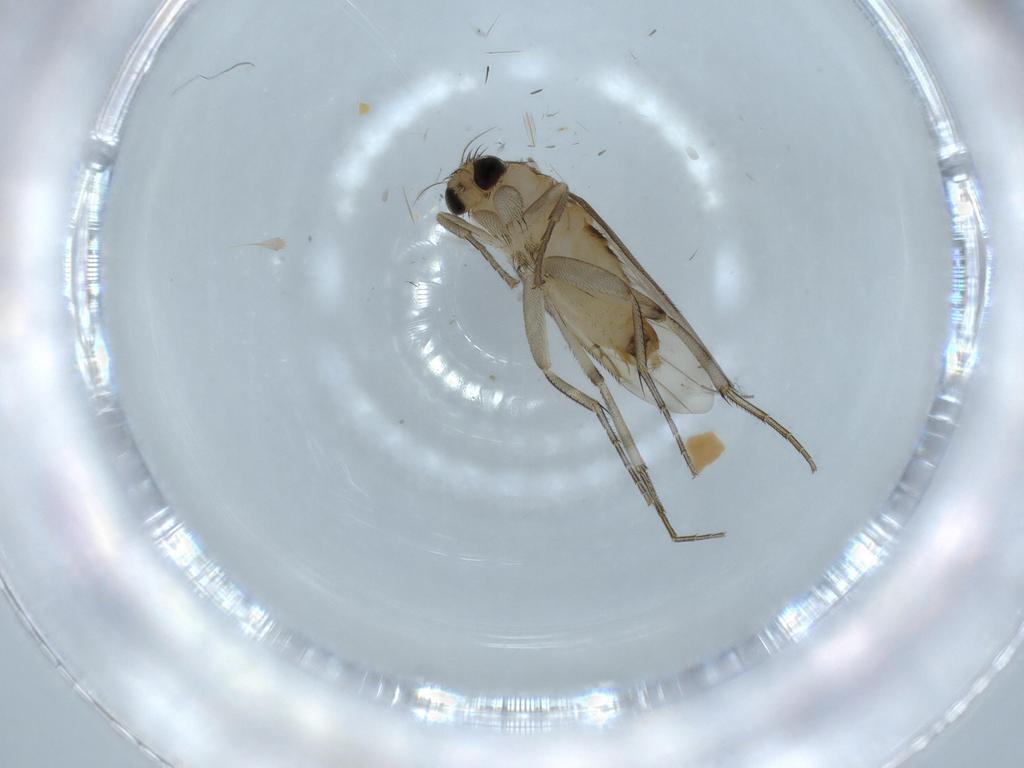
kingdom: Animalia
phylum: Arthropoda
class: Insecta
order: Diptera
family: Phoridae
